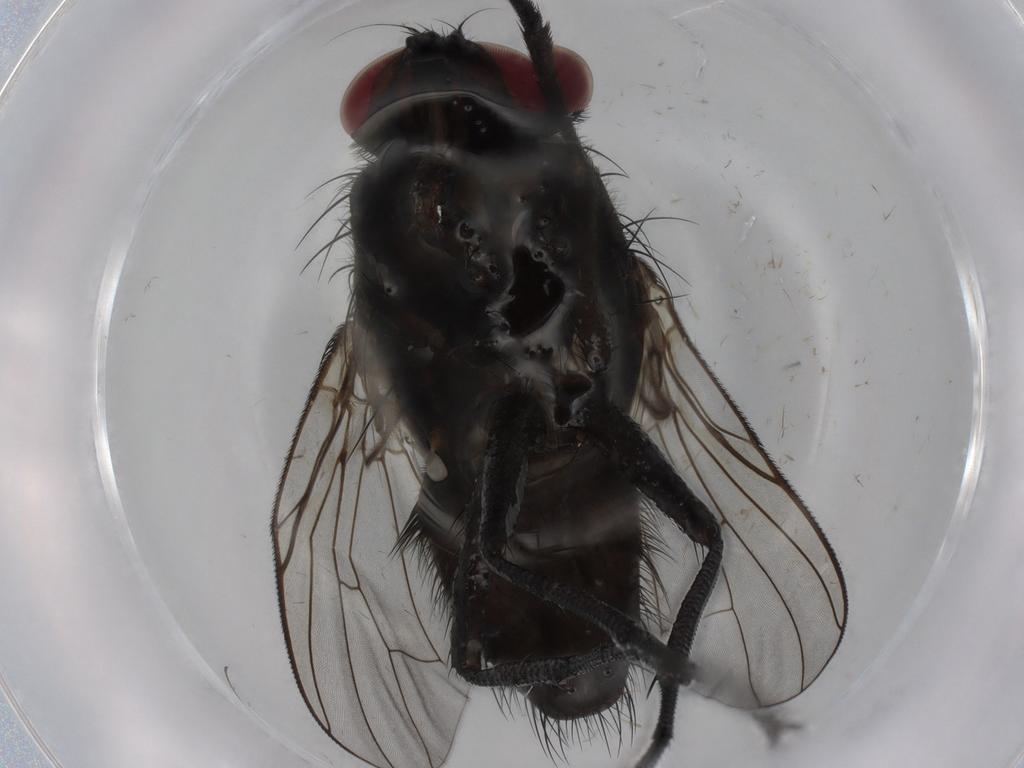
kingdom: Animalia
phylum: Arthropoda
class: Insecta
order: Diptera
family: Muscidae
